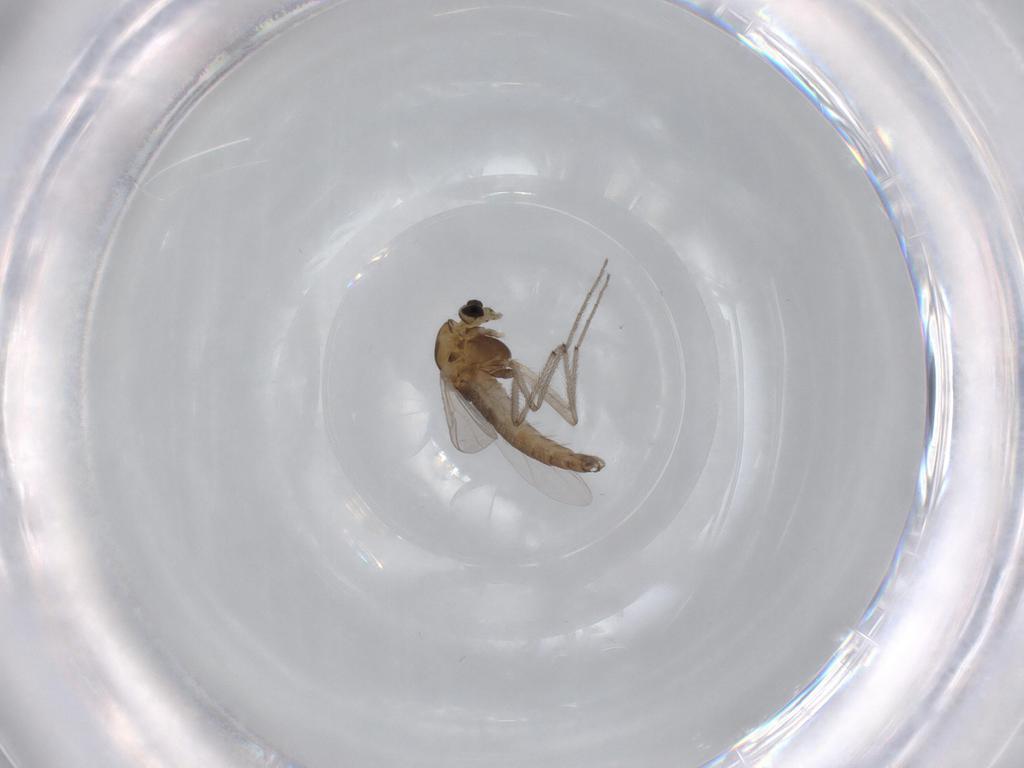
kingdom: Animalia
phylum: Arthropoda
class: Insecta
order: Diptera
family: Chironomidae
